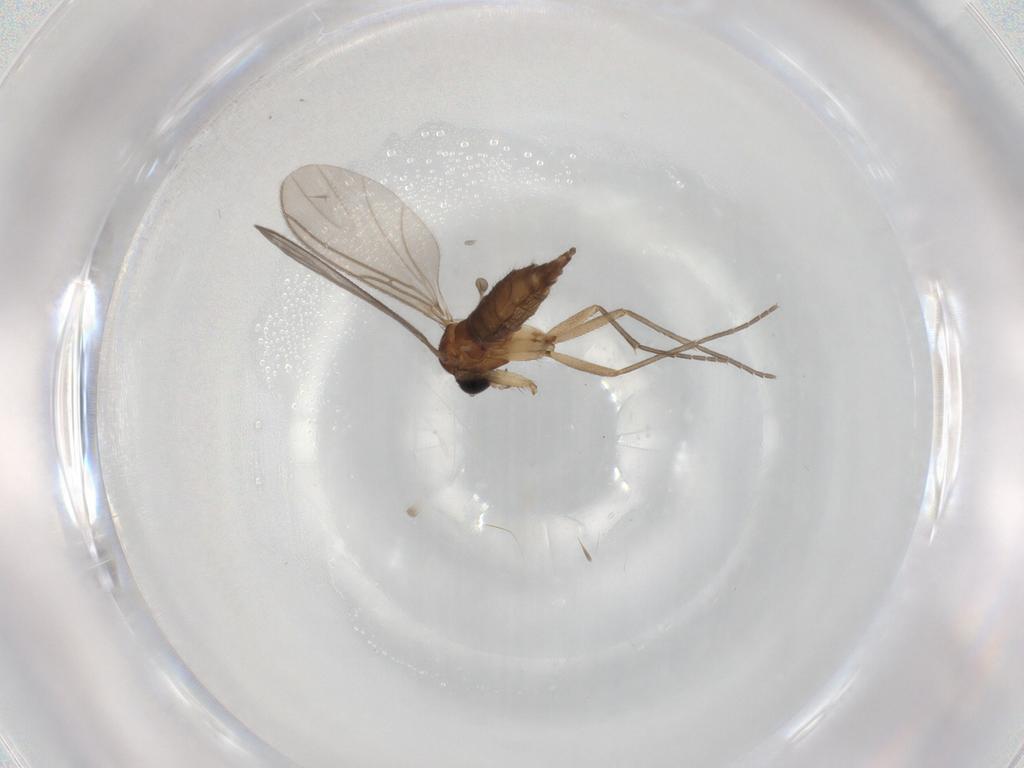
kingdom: Animalia
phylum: Arthropoda
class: Insecta
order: Diptera
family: Sciaridae
